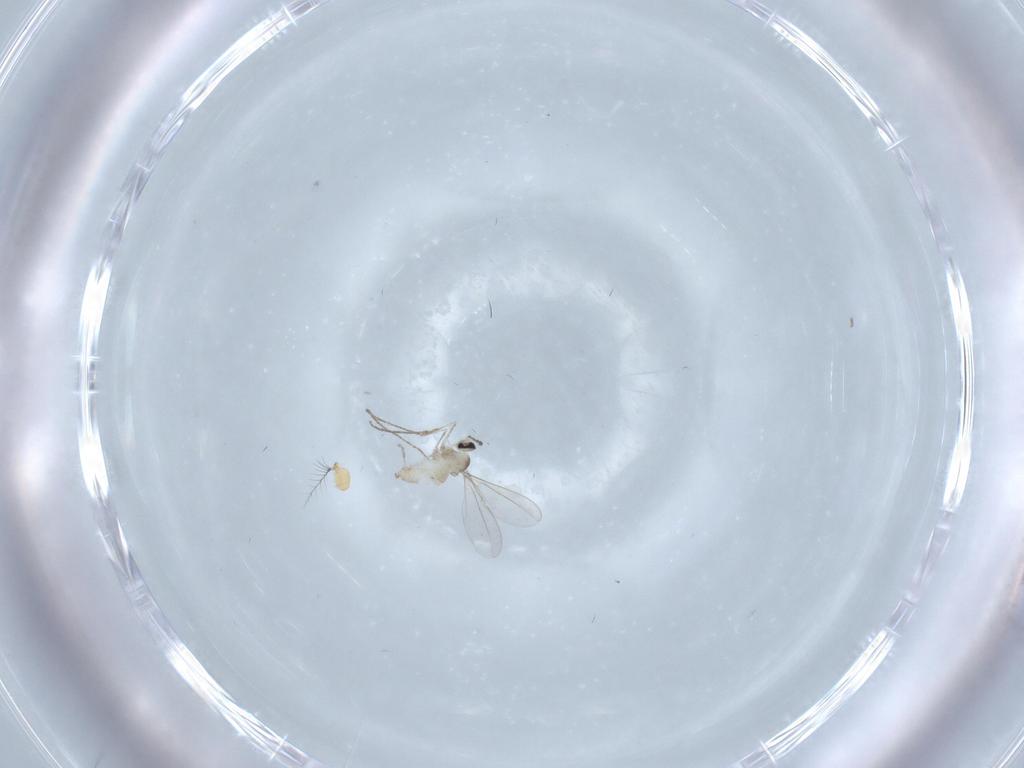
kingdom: Animalia
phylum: Arthropoda
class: Insecta
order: Diptera
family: Cecidomyiidae
